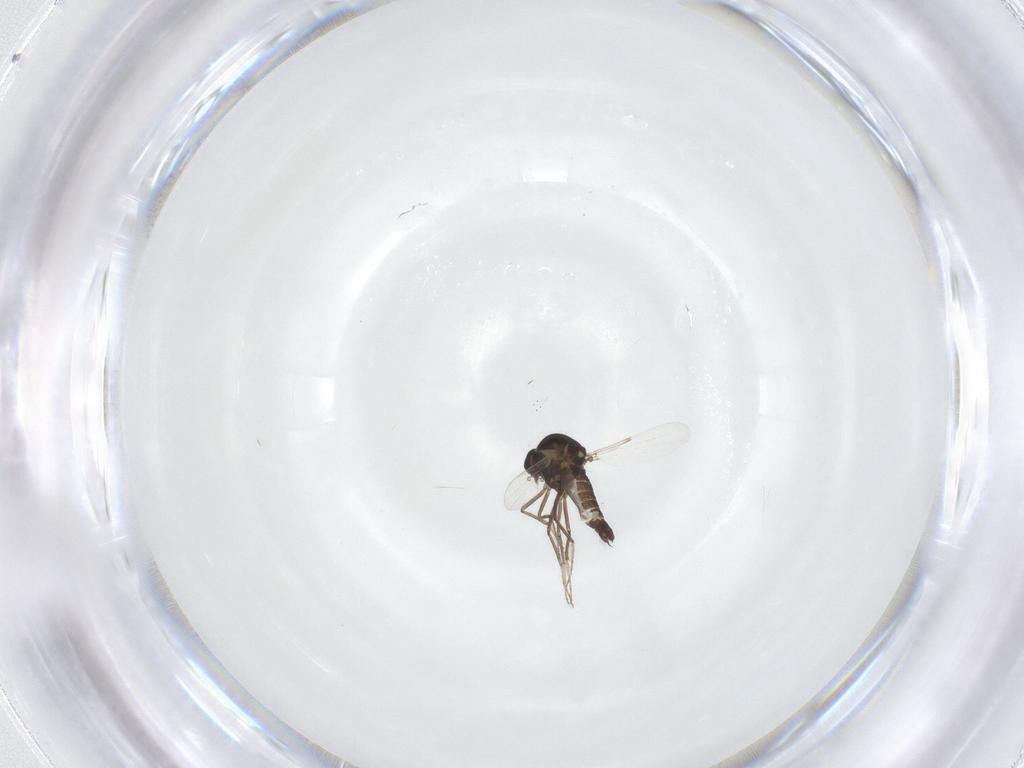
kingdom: Animalia
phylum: Arthropoda
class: Insecta
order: Diptera
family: Ceratopogonidae
